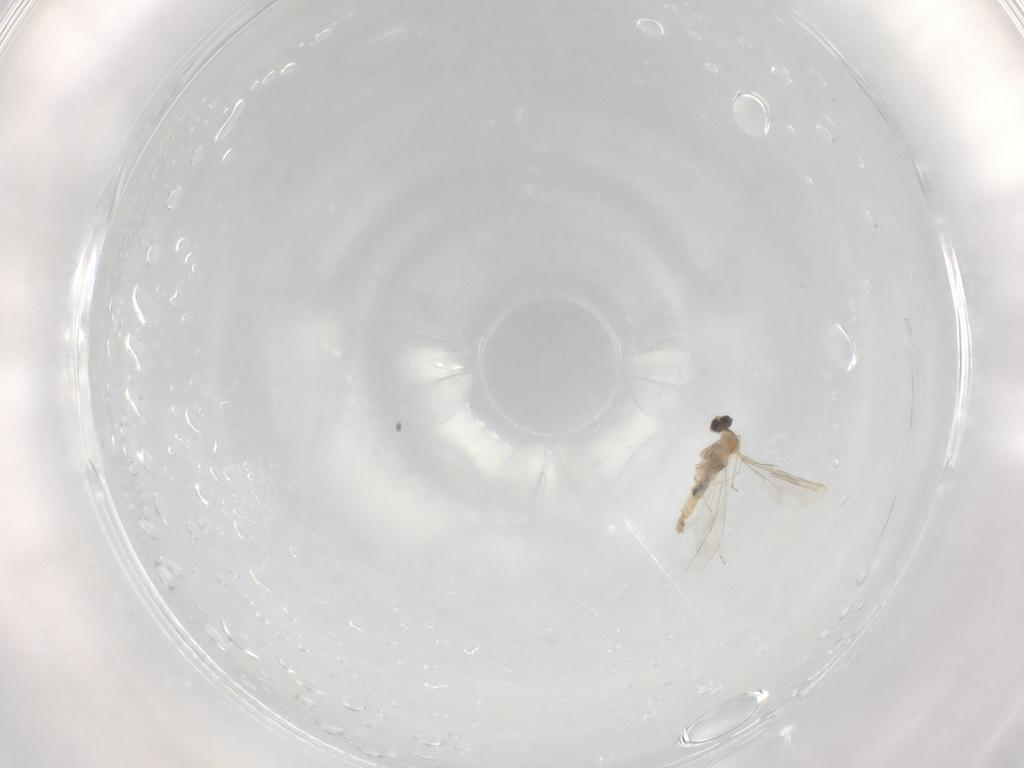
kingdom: Animalia
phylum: Arthropoda
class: Insecta
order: Diptera
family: Cecidomyiidae
